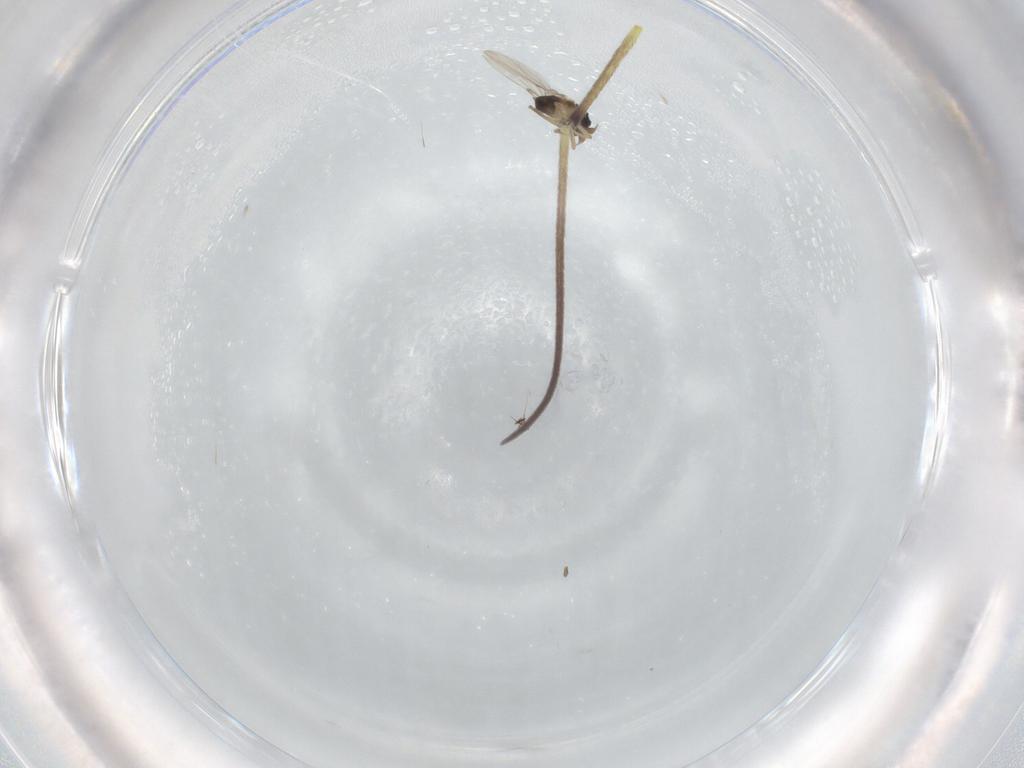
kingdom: Animalia
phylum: Arthropoda
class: Insecta
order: Diptera
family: Phoridae
